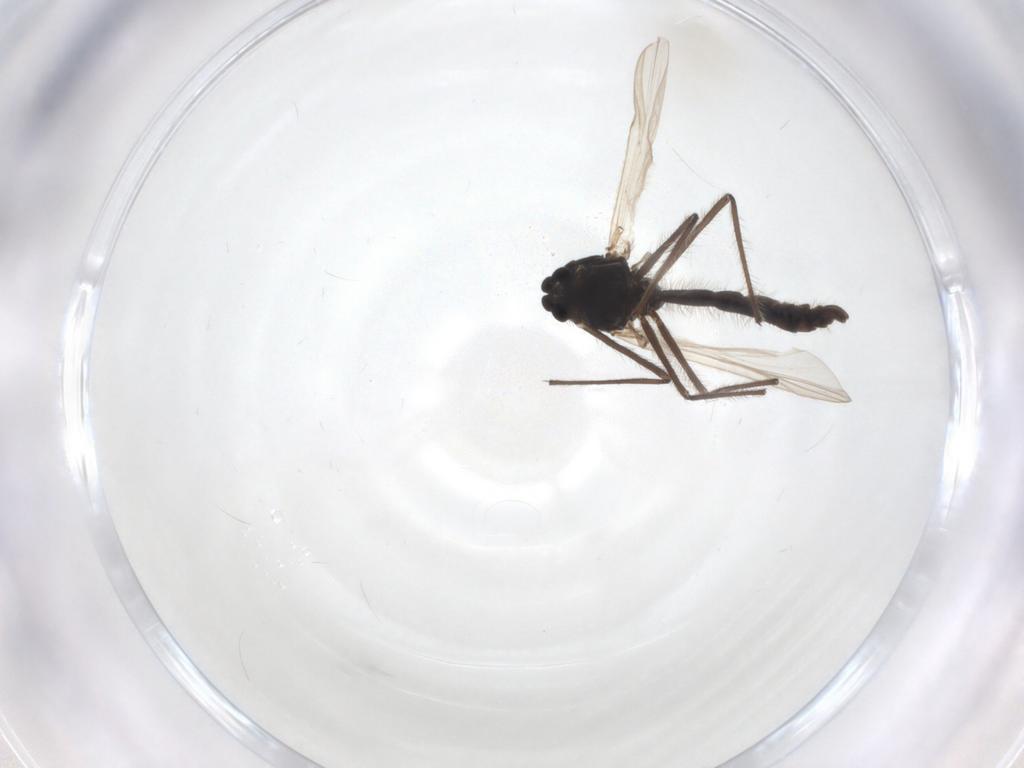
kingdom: Animalia
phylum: Arthropoda
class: Insecta
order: Diptera
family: Chironomidae
